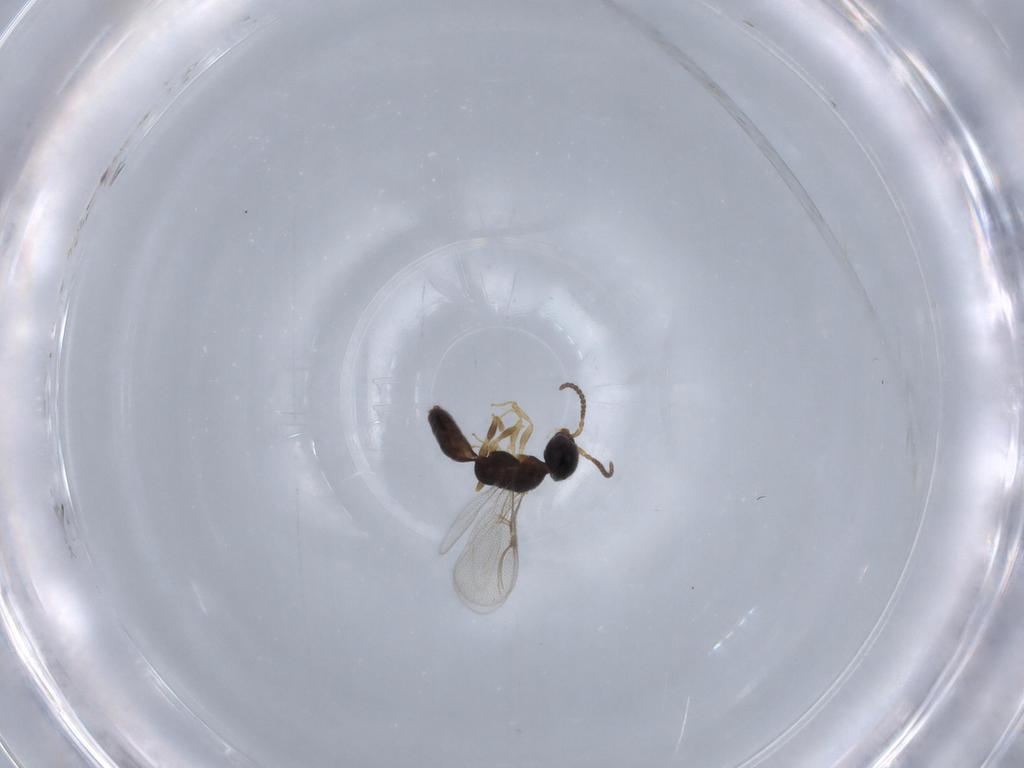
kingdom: Animalia
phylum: Arthropoda
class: Insecta
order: Hymenoptera
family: Bethylidae
